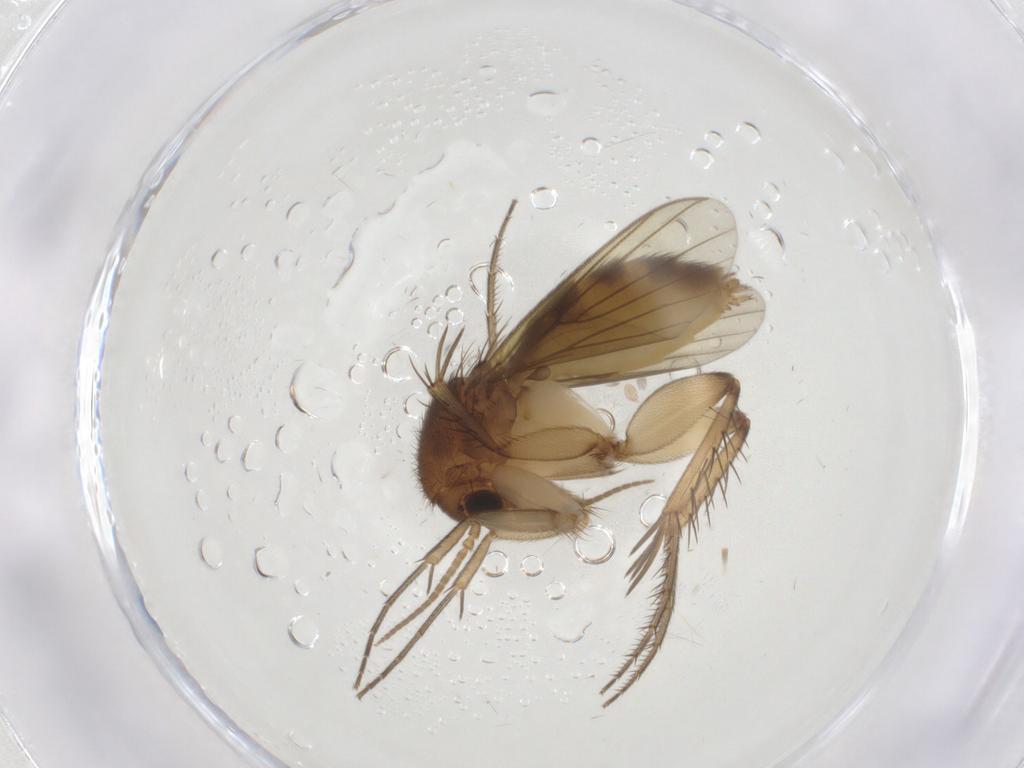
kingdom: Animalia
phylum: Arthropoda
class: Insecta
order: Diptera
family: Mycetophilidae
